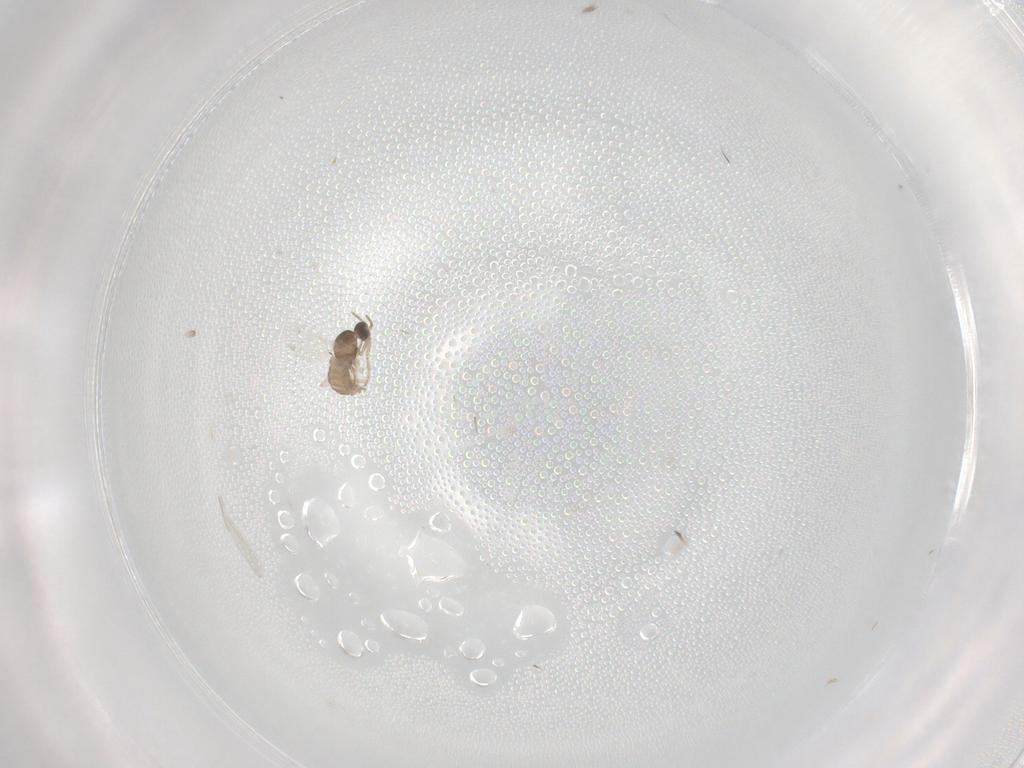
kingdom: Animalia
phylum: Arthropoda
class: Insecta
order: Diptera
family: Cecidomyiidae
